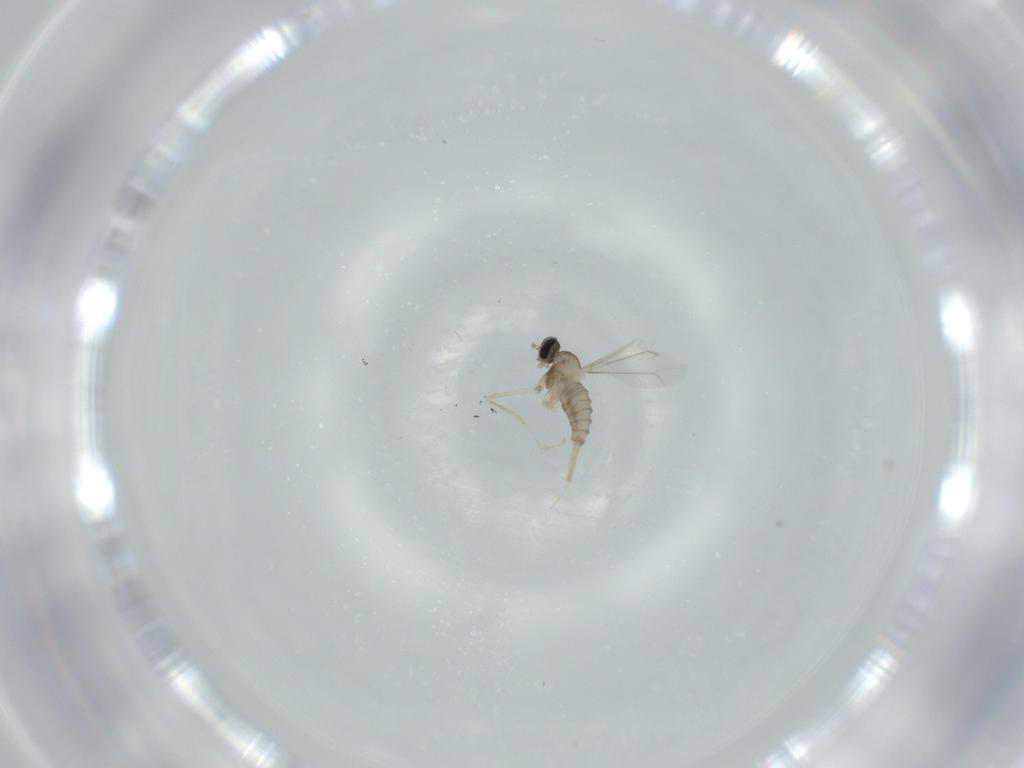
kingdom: Animalia
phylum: Arthropoda
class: Insecta
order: Diptera
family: Cecidomyiidae
